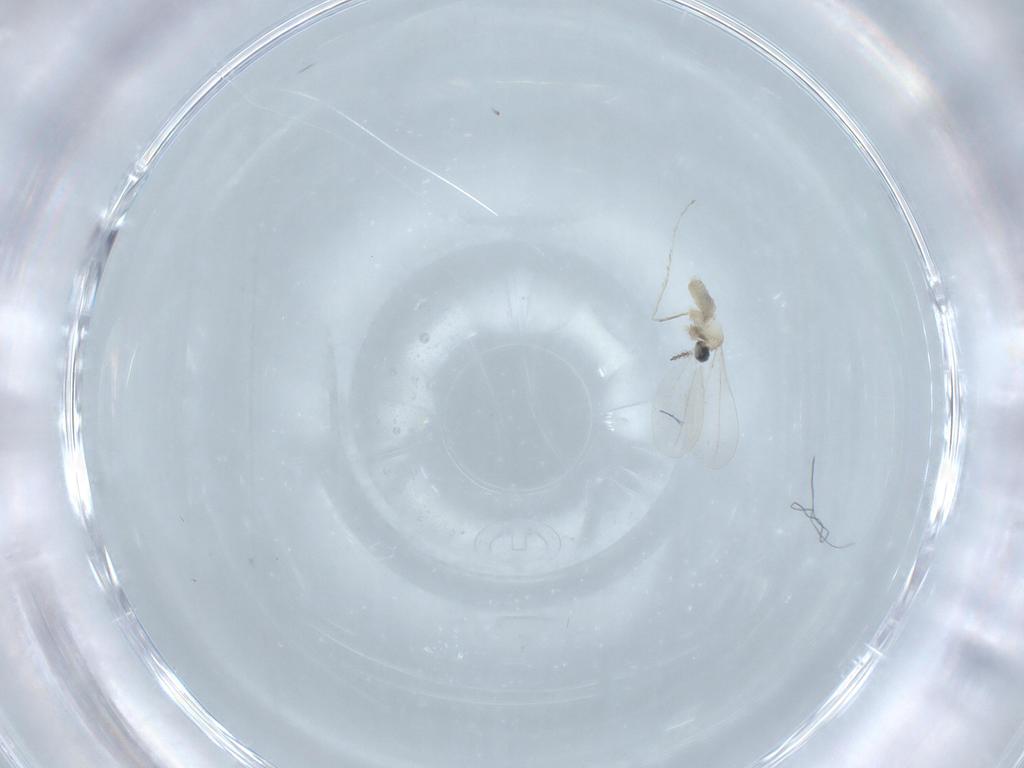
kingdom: Animalia
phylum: Arthropoda
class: Insecta
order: Diptera
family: Cecidomyiidae
